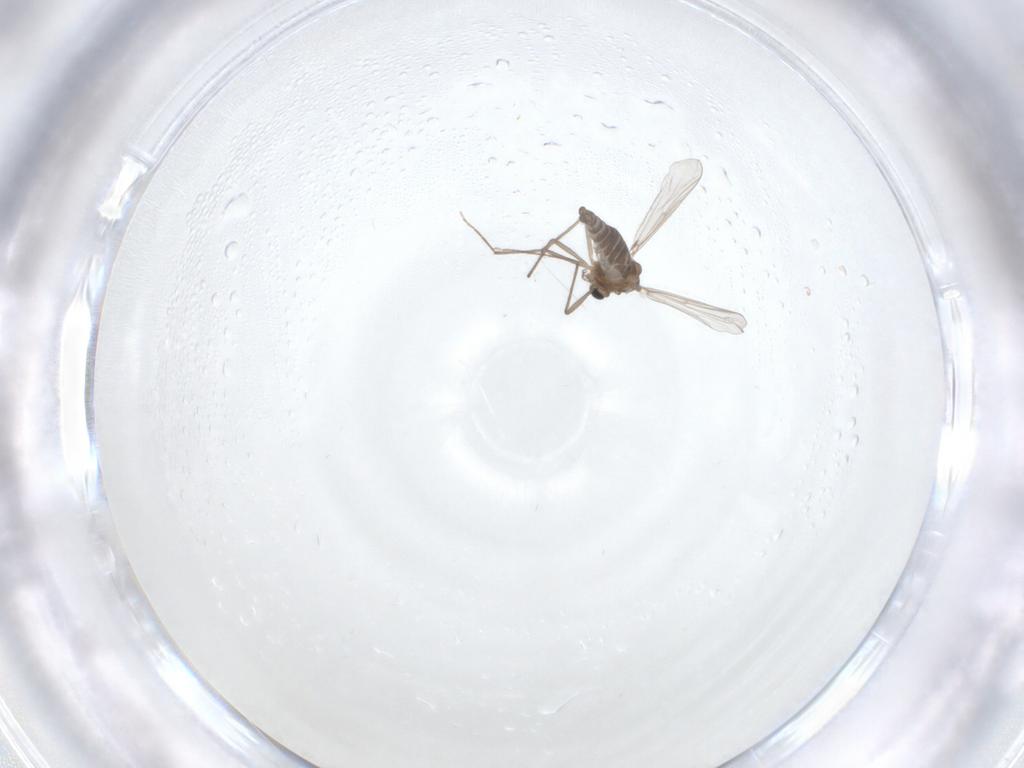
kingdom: Animalia
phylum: Arthropoda
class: Insecta
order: Diptera
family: Chironomidae
